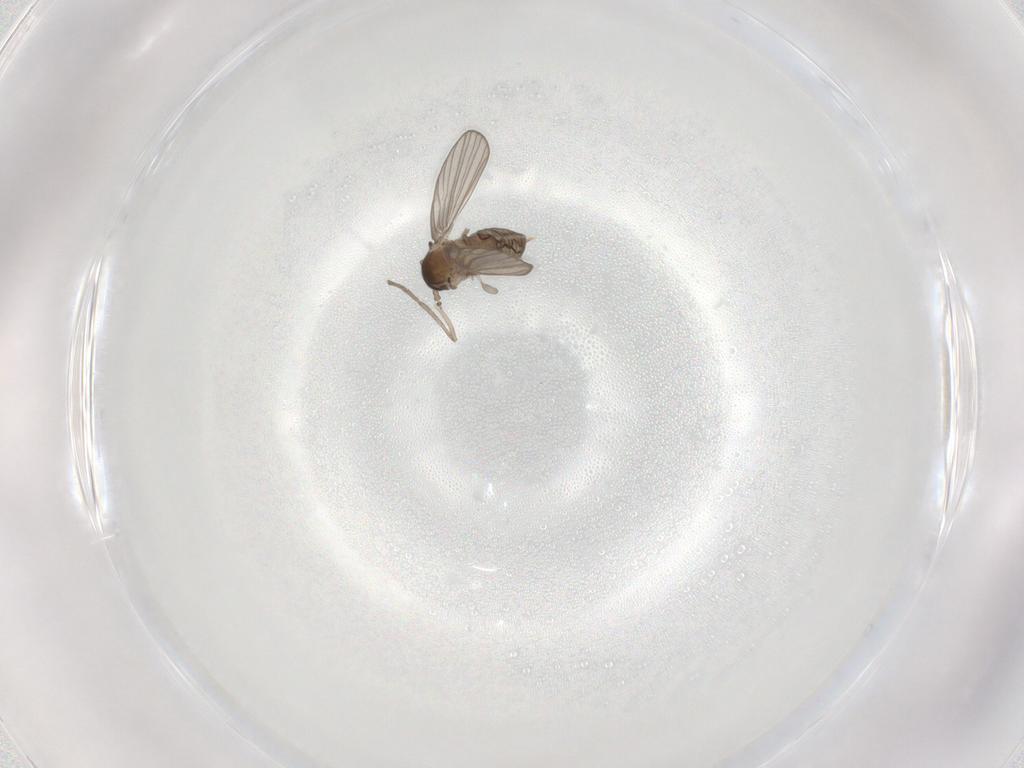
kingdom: Animalia
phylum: Arthropoda
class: Insecta
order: Diptera
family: Psychodidae
